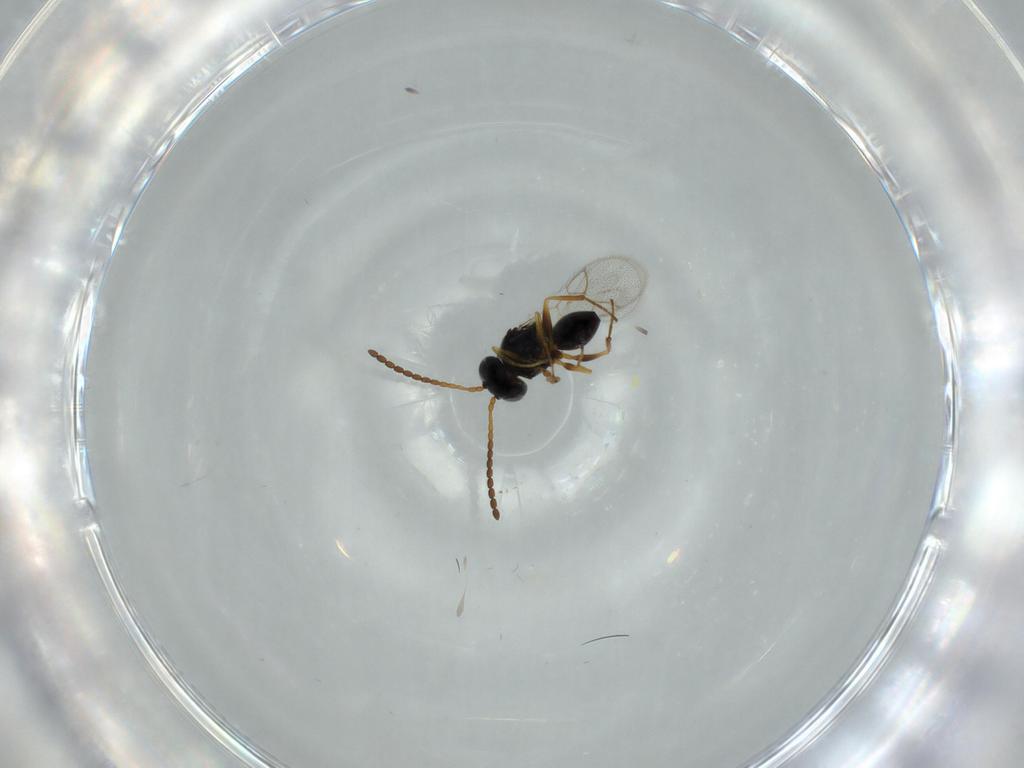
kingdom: Animalia
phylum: Arthropoda
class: Insecta
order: Hymenoptera
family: Figitidae
